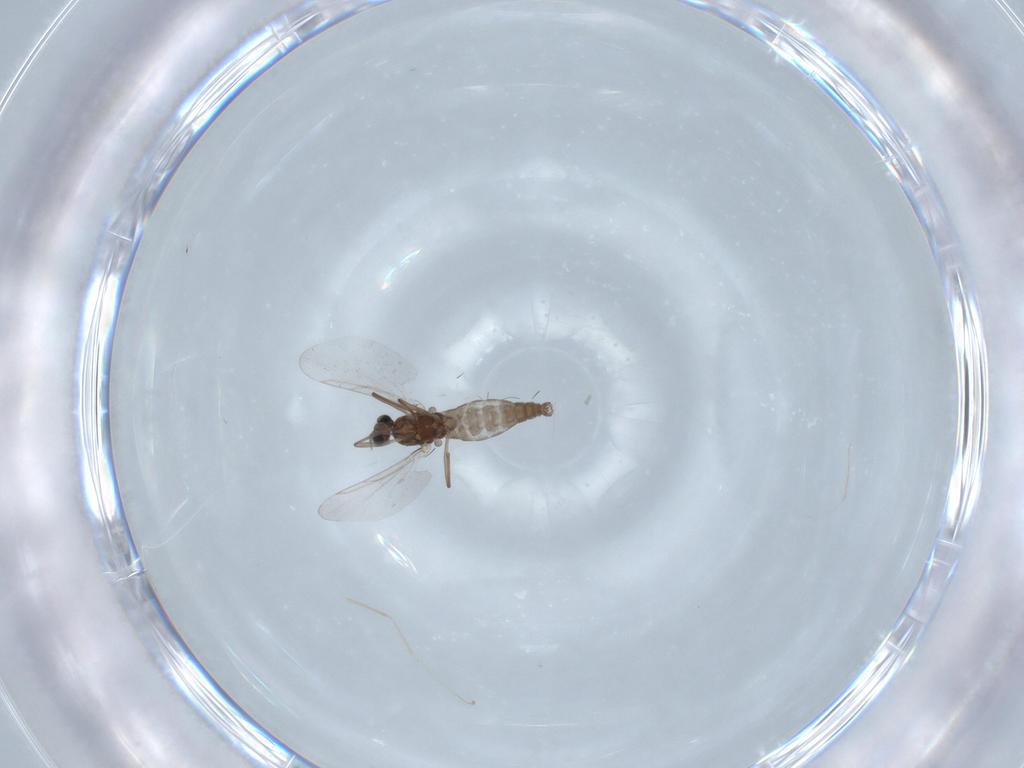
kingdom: Animalia
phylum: Arthropoda
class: Insecta
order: Diptera
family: Cecidomyiidae
